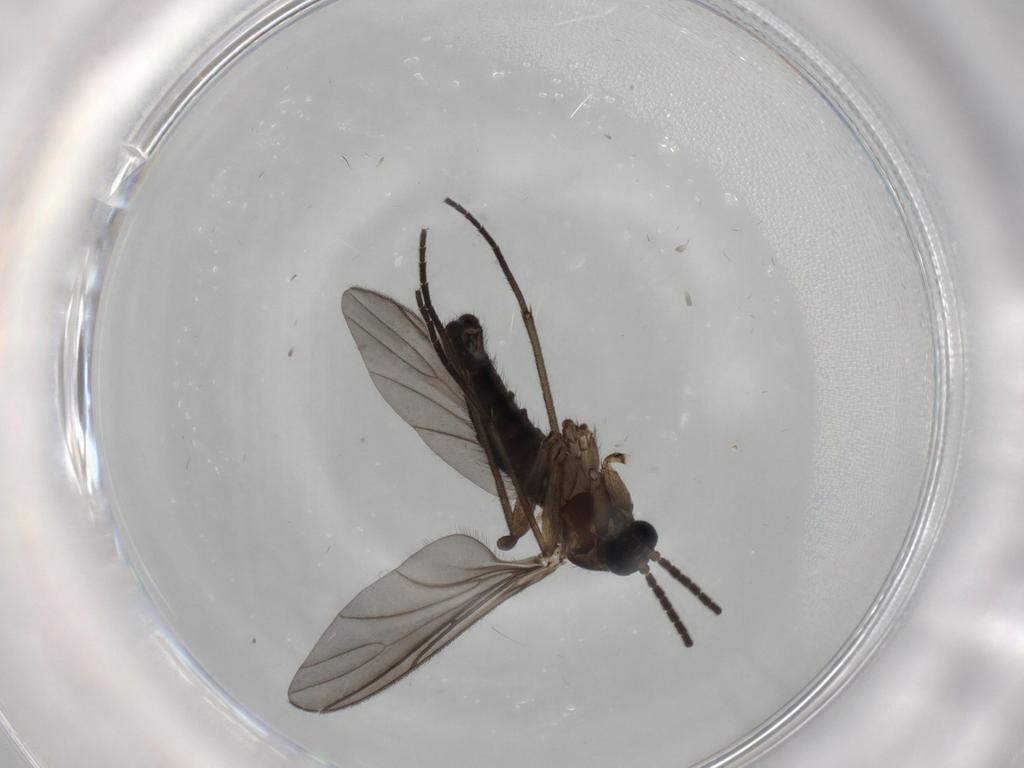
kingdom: Animalia
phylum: Arthropoda
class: Insecta
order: Diptera
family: Sciaridae
